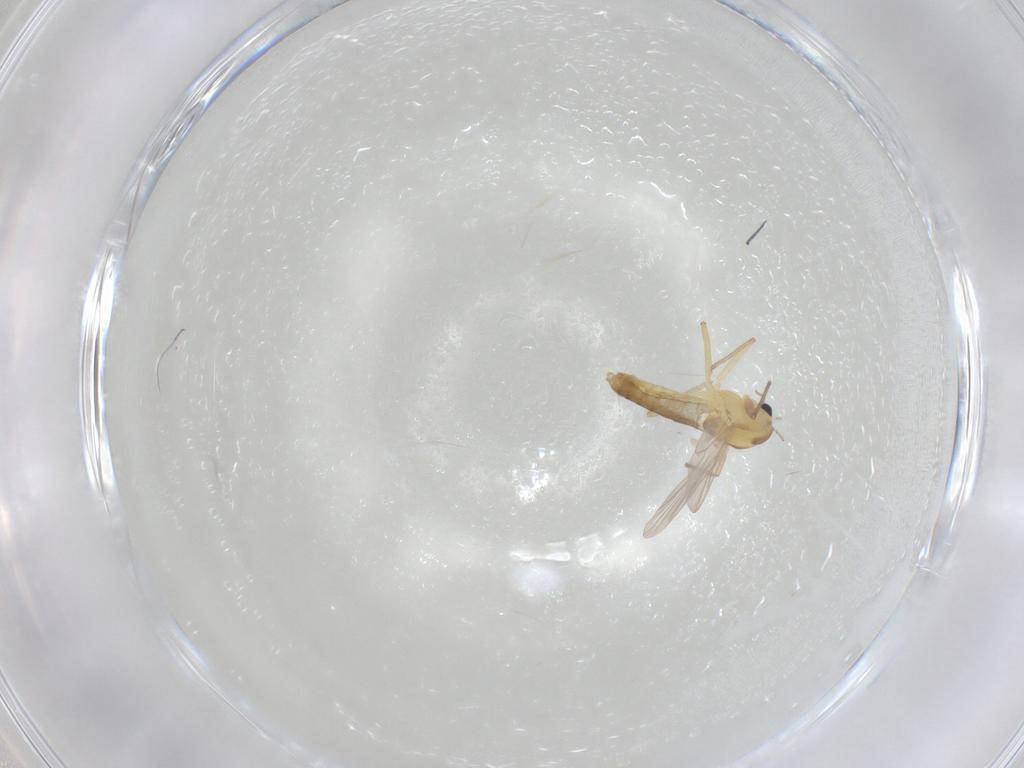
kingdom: Animalia
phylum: Arthropoda
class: Insecta
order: Diptera
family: Chironomidae
